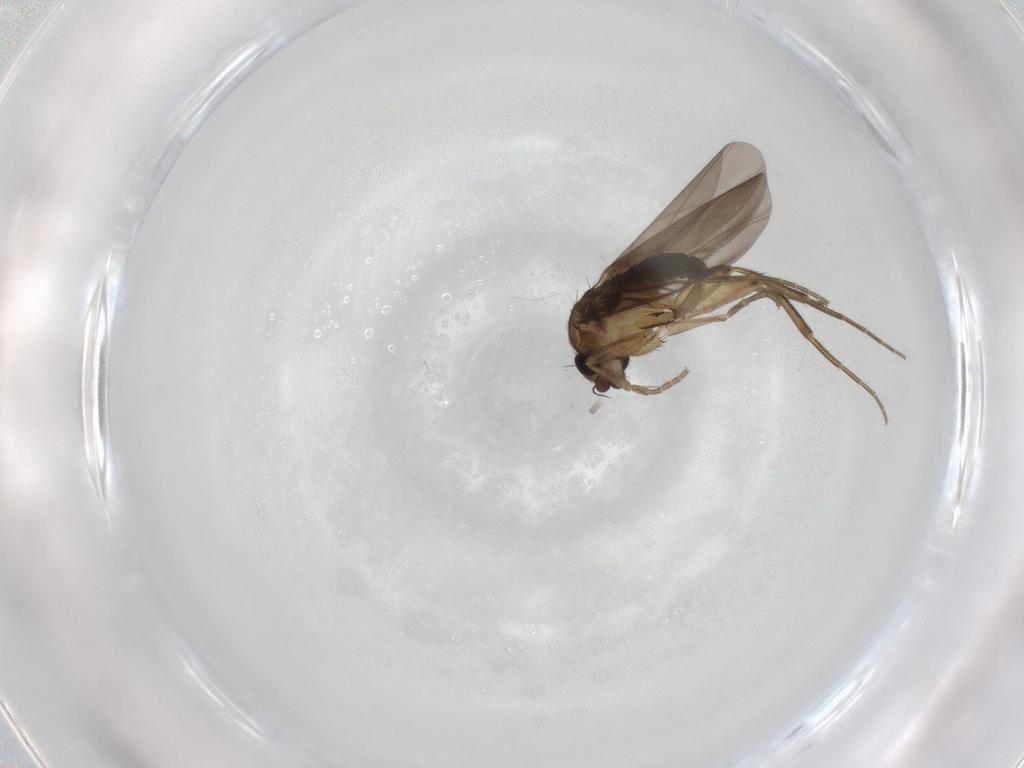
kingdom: Animalia
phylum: Arthropoda
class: Insecta
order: Diptera
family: Phoridae
